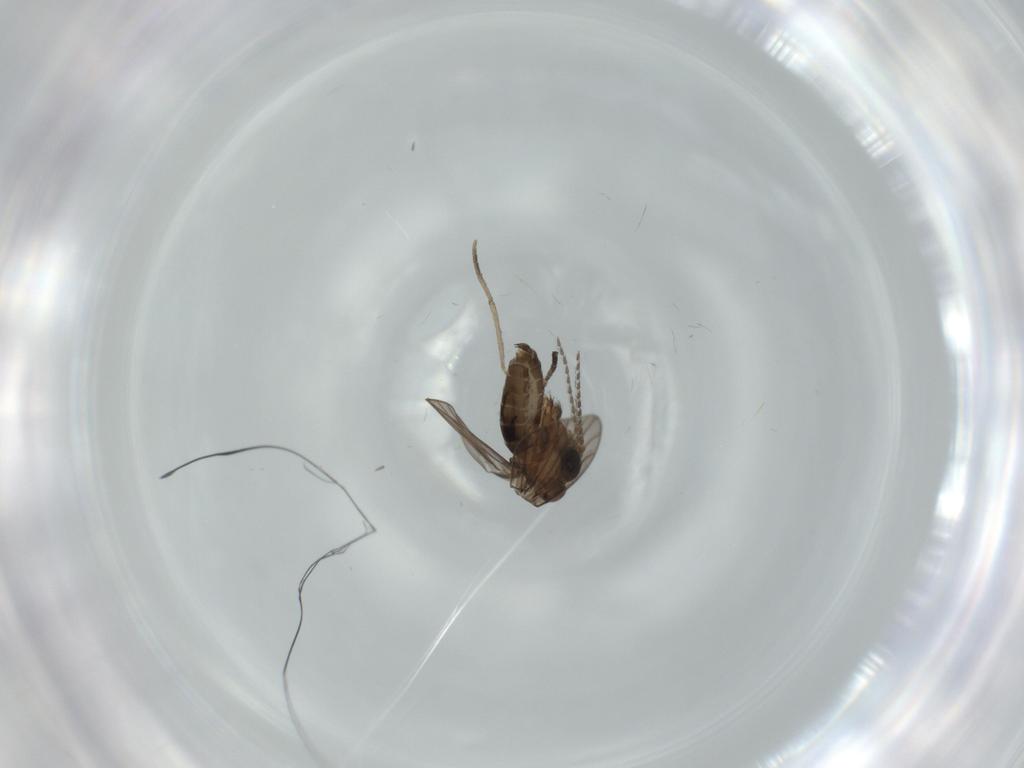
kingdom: Animalia
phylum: Arthropoda
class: Insecta
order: Diptera
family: Psychodidae
